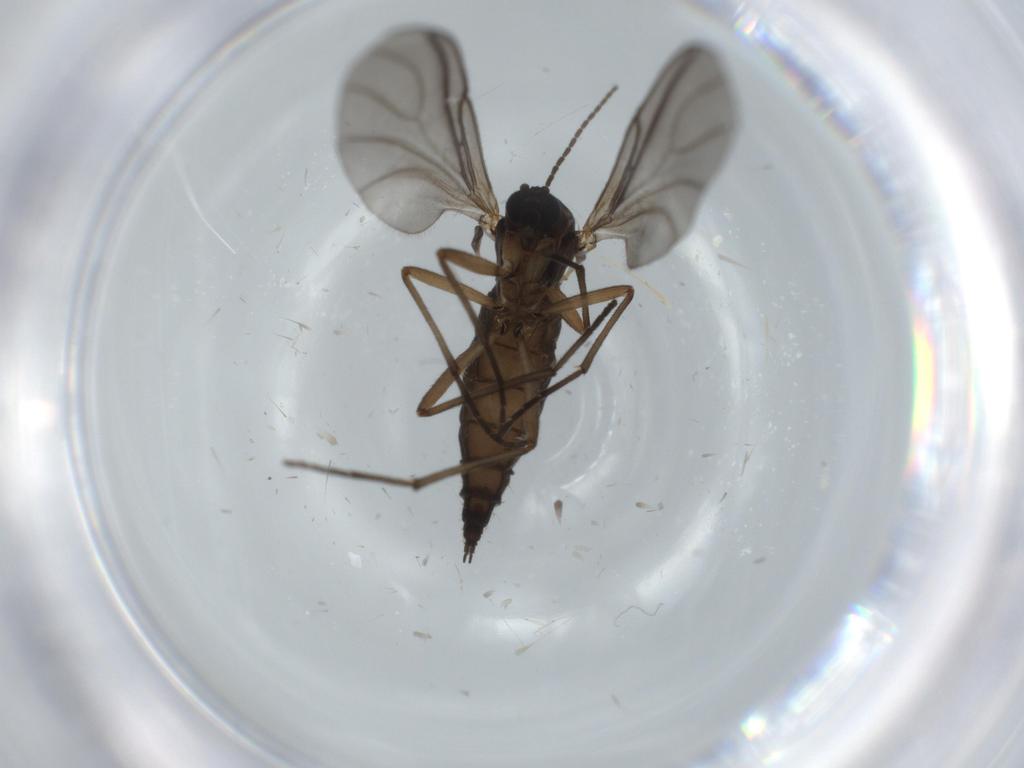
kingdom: Animalia
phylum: Arthropoda
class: Insecta
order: Diptera
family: Sciaridae
